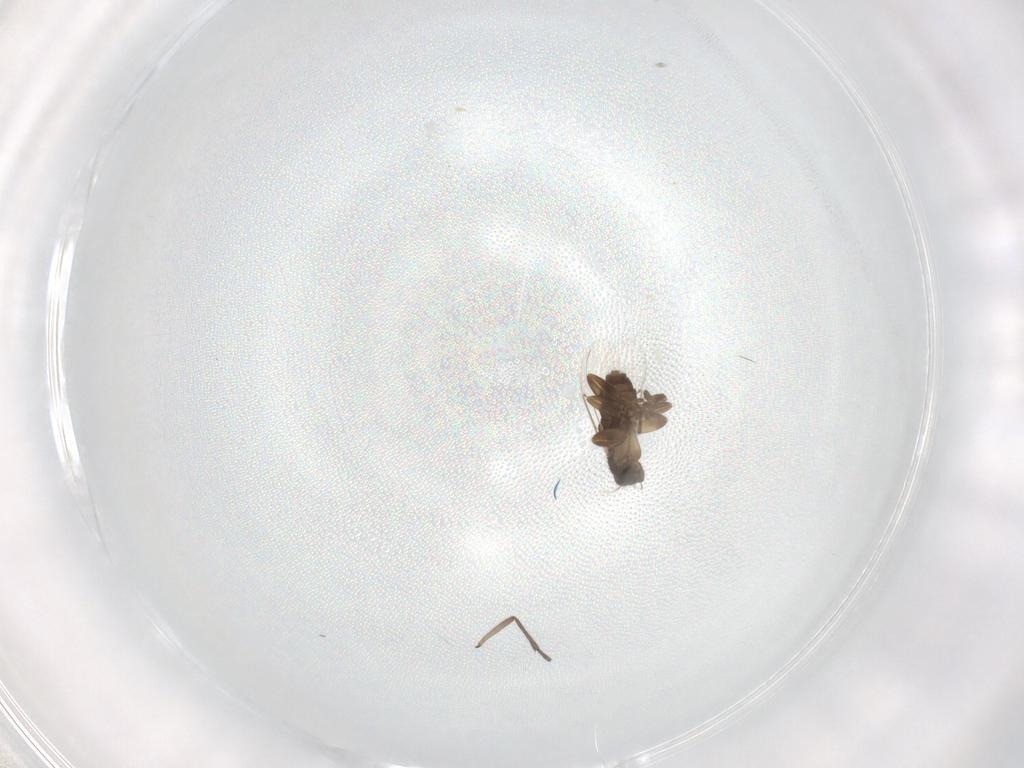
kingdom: Animalia
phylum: Arthropoda
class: Insecta
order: Diptera
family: Sciaridae
